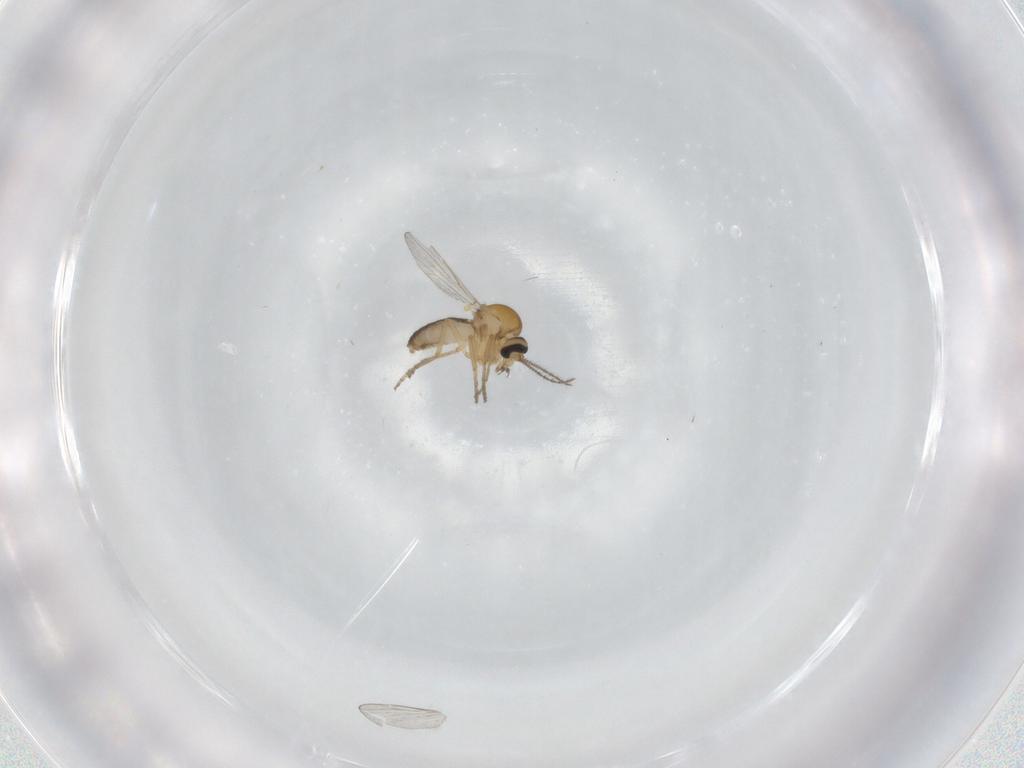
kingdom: Animalia
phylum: Arthropoda
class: Insecta
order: Diptera
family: Ceratopogonidae
